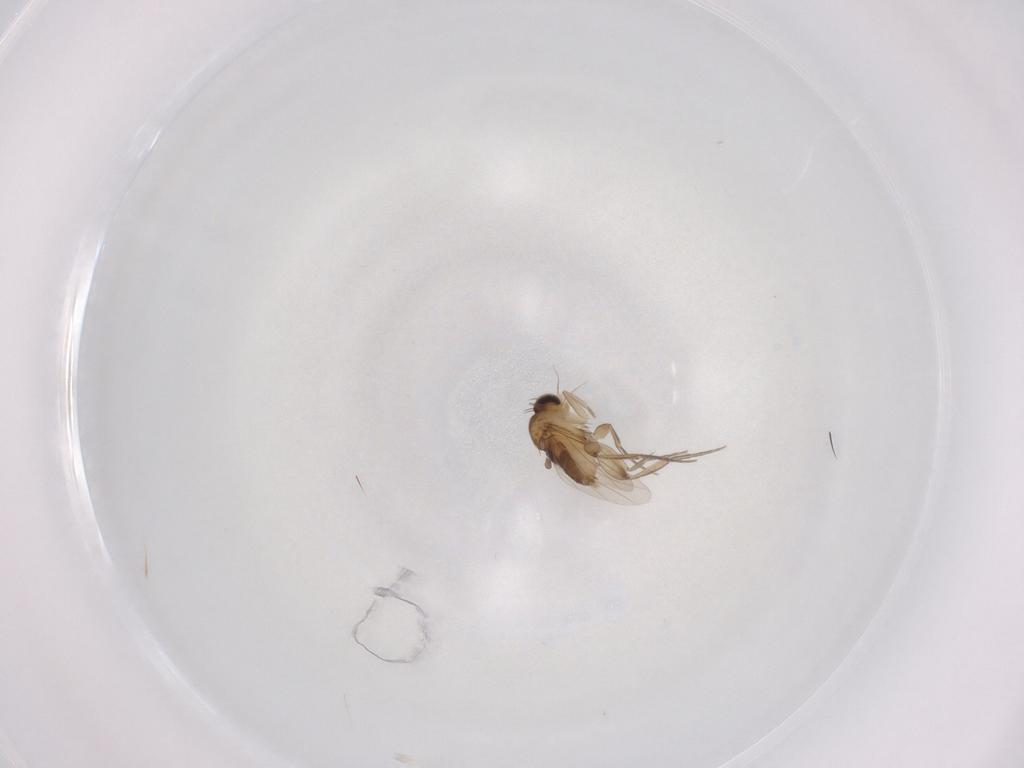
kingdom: Animalia
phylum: Arthropoda
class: Insecta
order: Diptera
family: Phoridae
